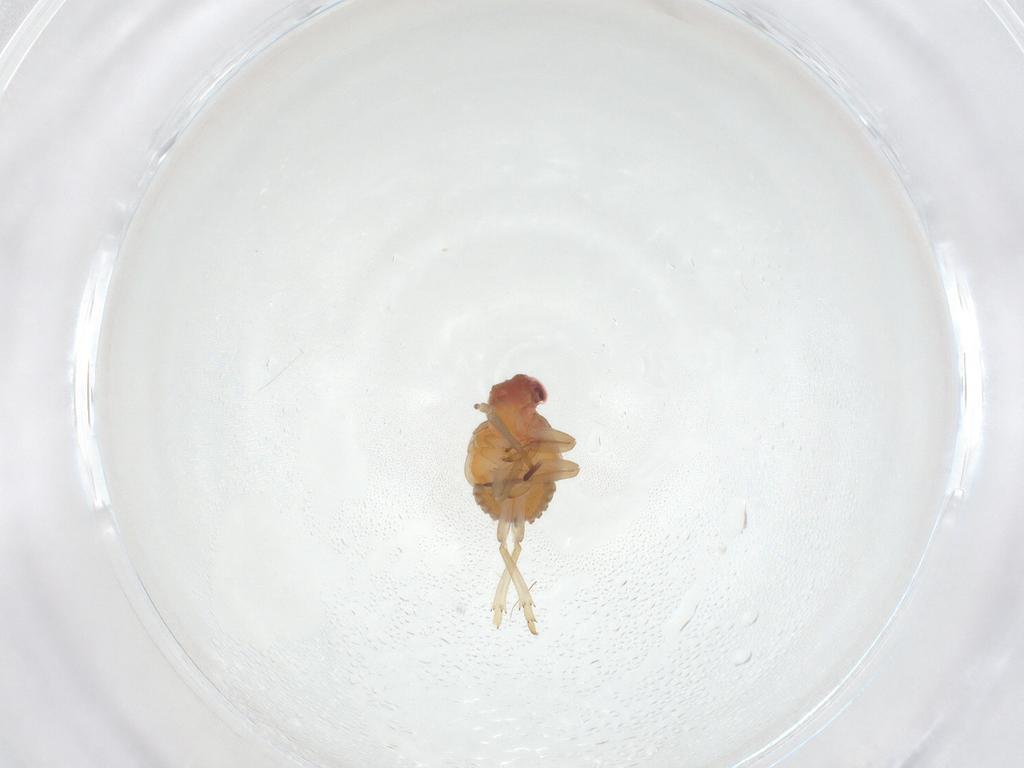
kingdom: Animalia
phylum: Arthropoda
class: Insecta
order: Hemiptera
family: Fulgoroidea_incertae_sedis
